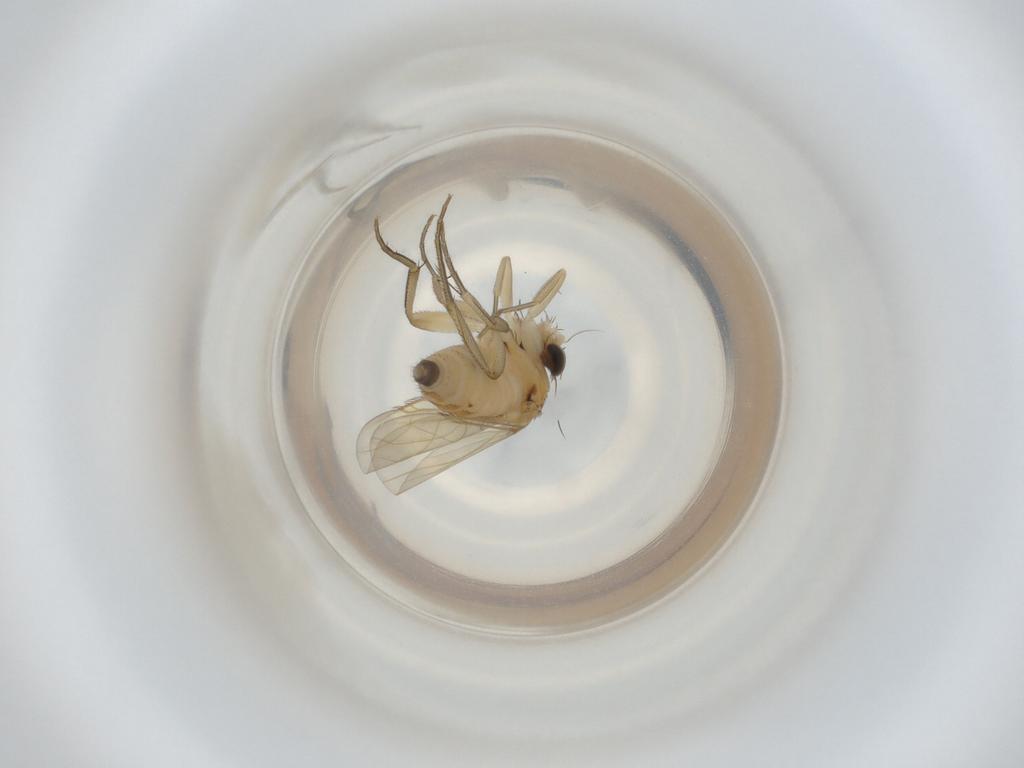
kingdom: Animalia
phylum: Arthropoda
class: Insecta
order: Diptera
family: Phoridae
